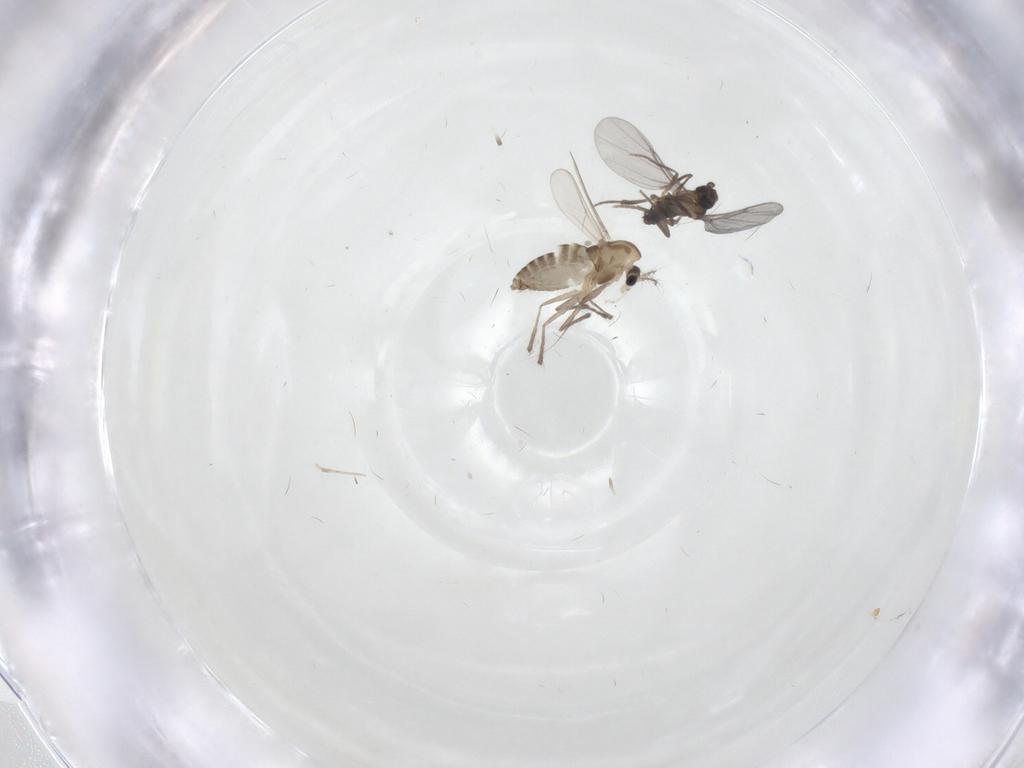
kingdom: Animalia
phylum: Arthropoda
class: Insecta
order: Diptera
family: Chironomidae
